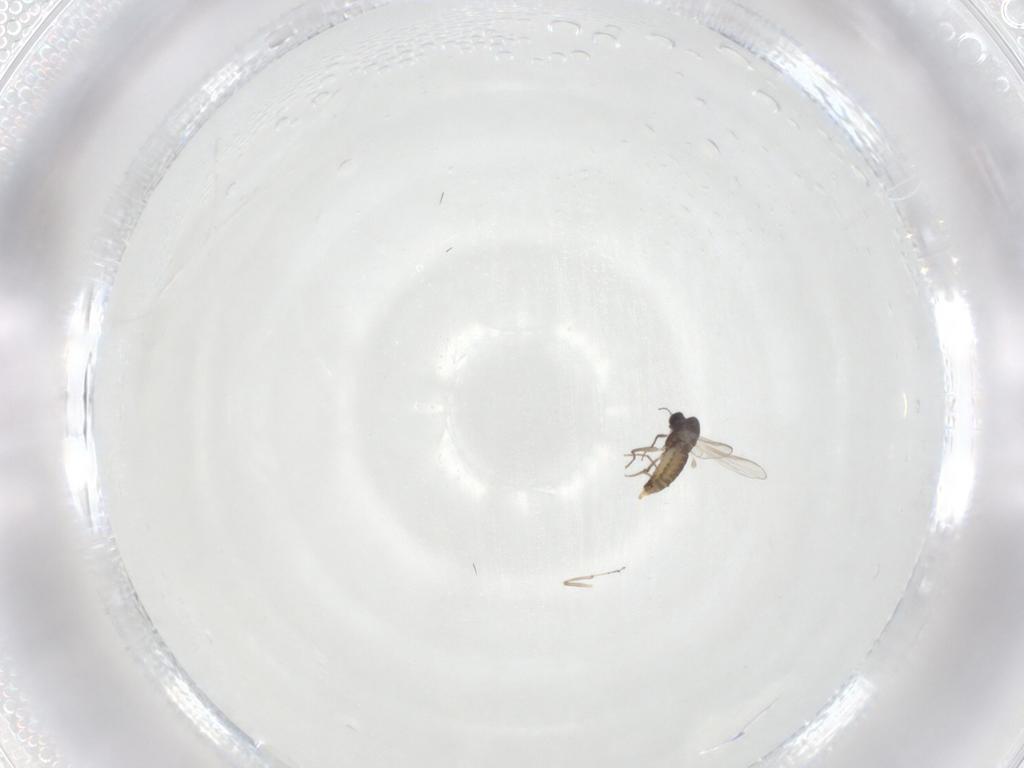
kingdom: Animalia
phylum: Arthropoda
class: Insecta
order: Diptera
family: Chironomidae
